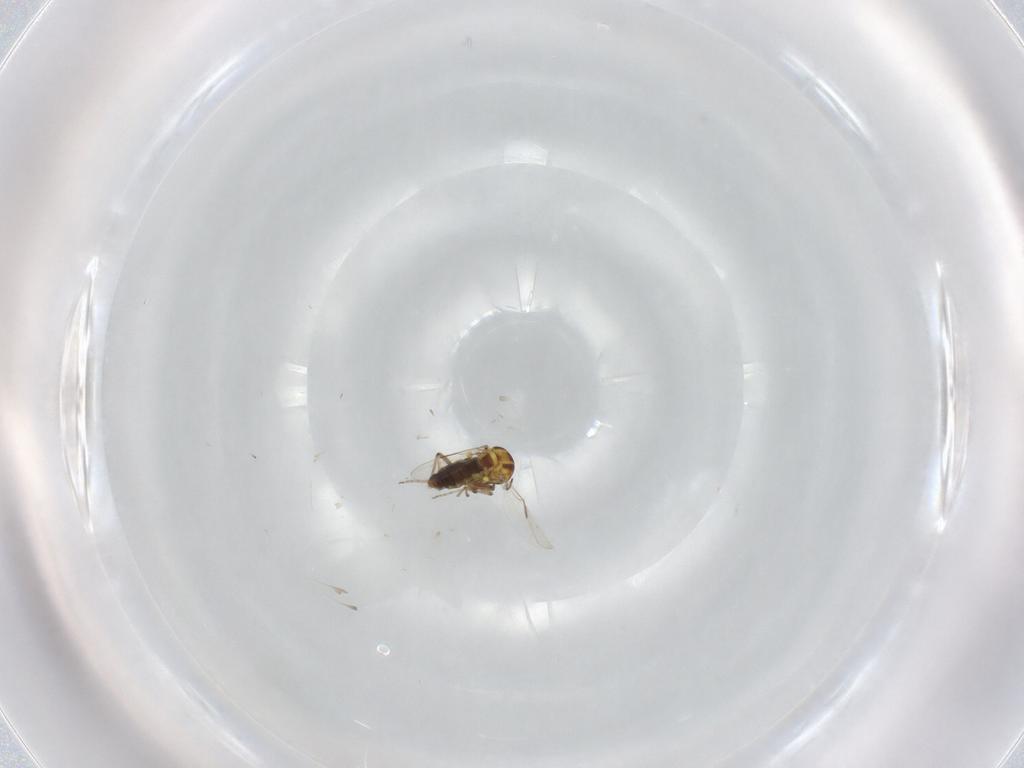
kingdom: Animalia
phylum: Arthropoda
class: Insecta
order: Diptera
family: Ceratopogonidae
